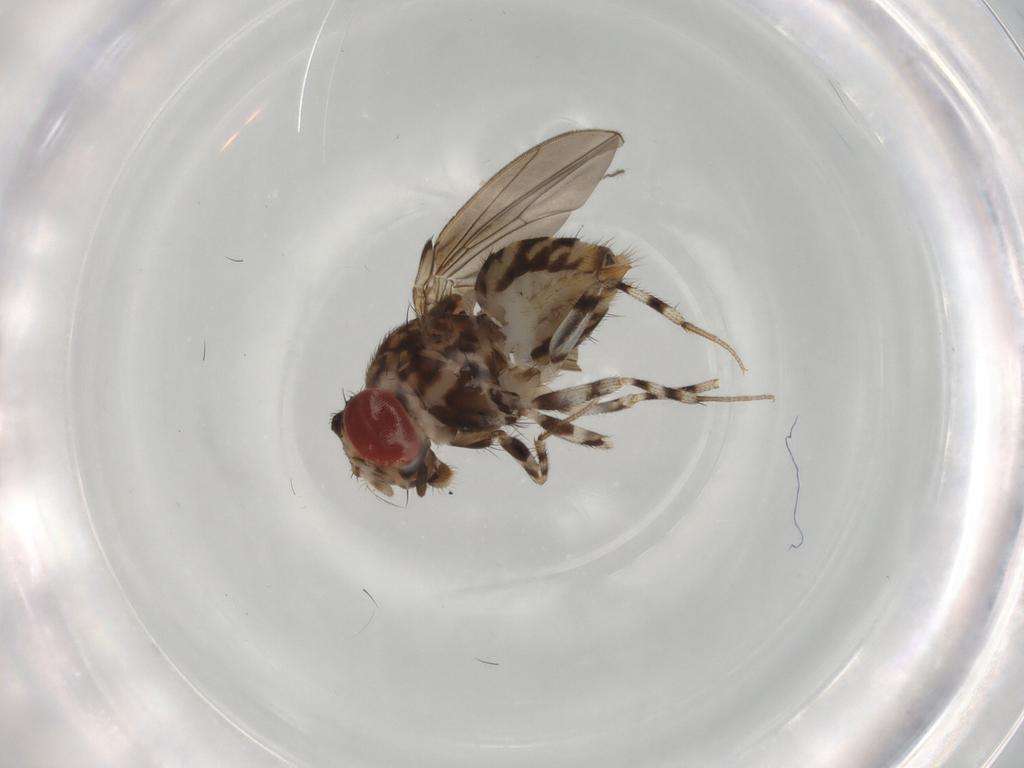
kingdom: Animalia
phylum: Arthropoda
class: Insecta
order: Diptera
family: Drosophilidae
